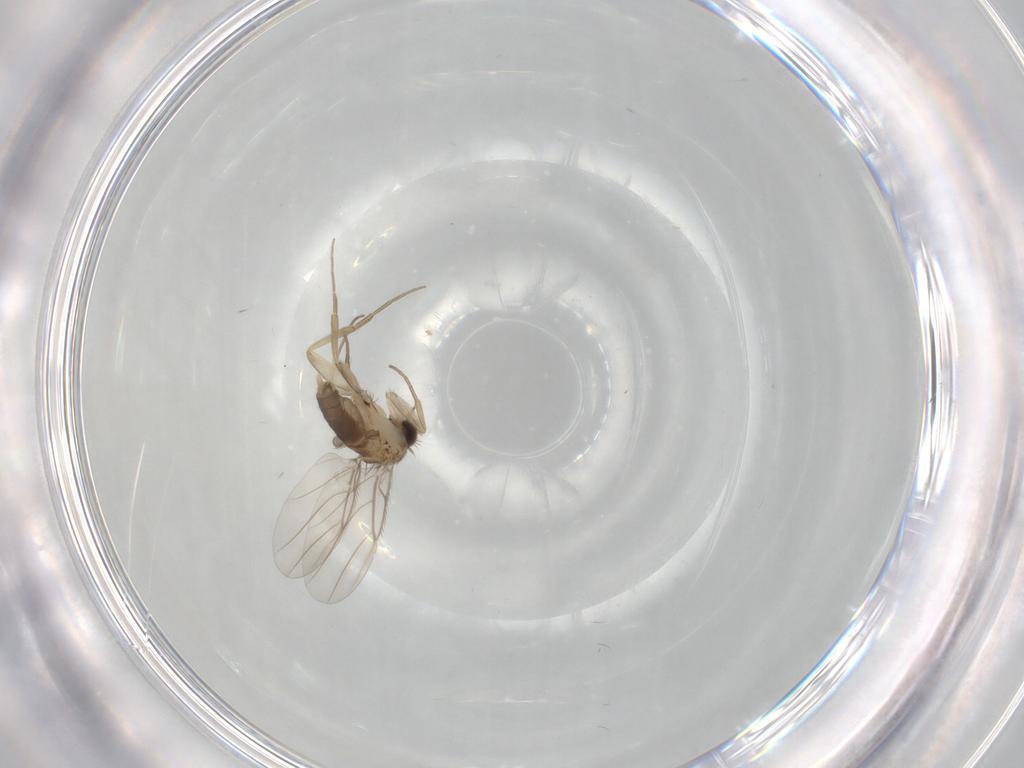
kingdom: Animalia
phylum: Arthropoda
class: Insecta
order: Diptera
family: Phoridae
